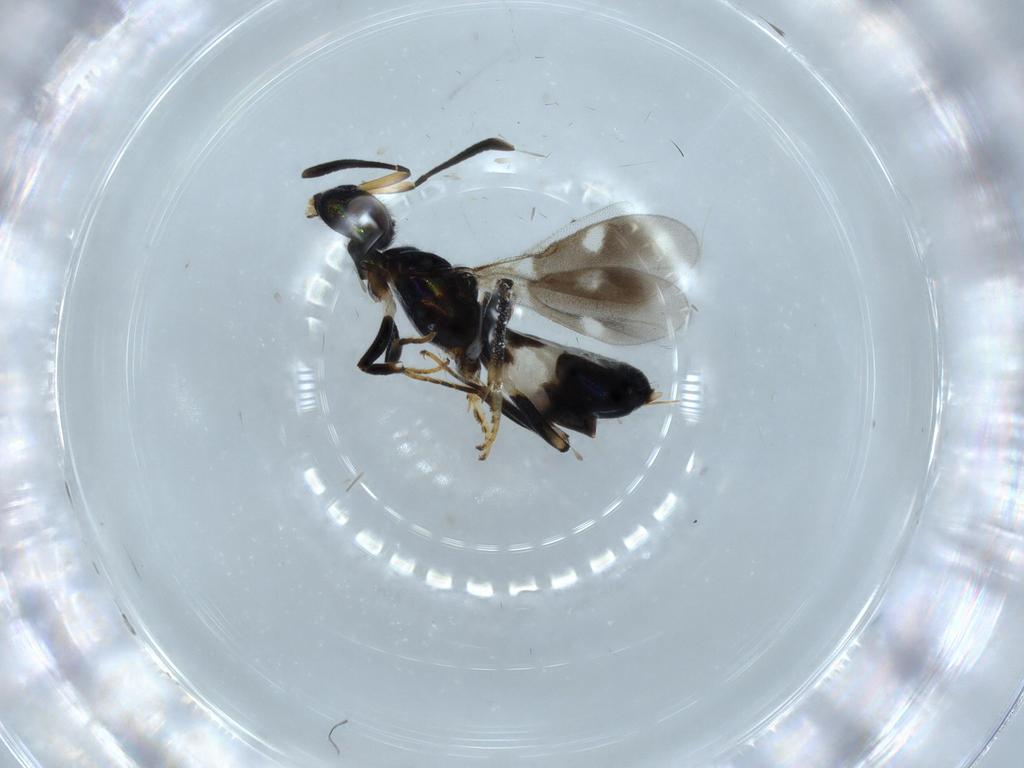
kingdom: Animalia
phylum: Arthropoda
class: Insecta
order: Hymenoptera
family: Eupelmidae
